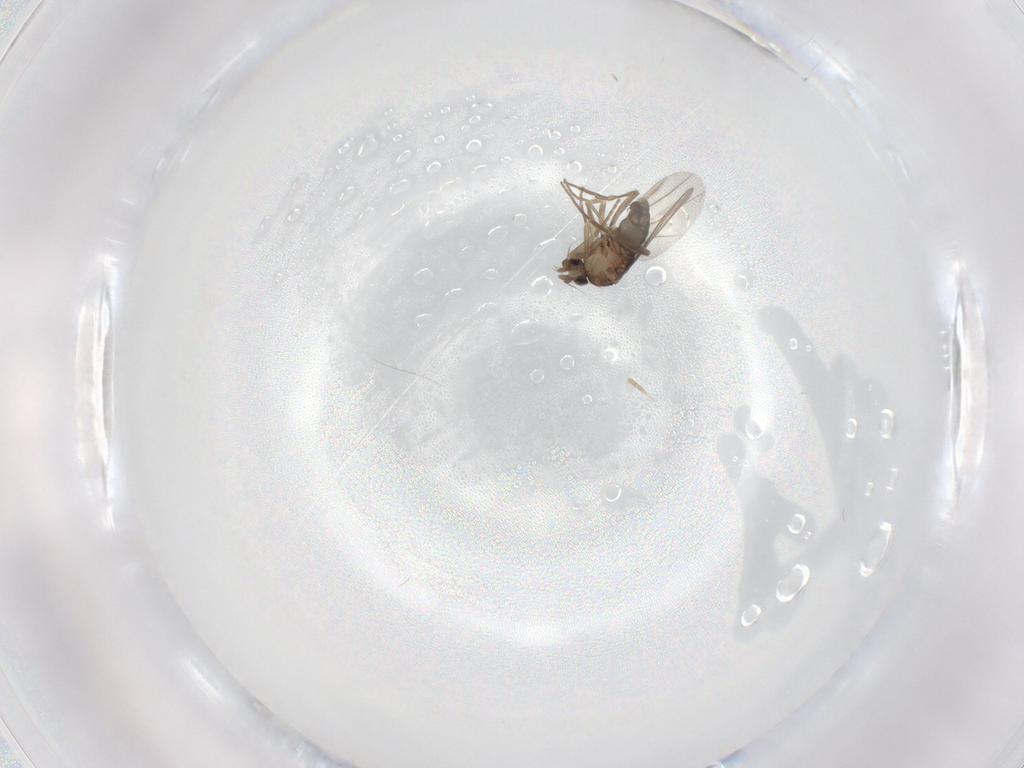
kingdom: Animalia
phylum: Arthropoda
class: Insecta
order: Diptera
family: Phoridae
